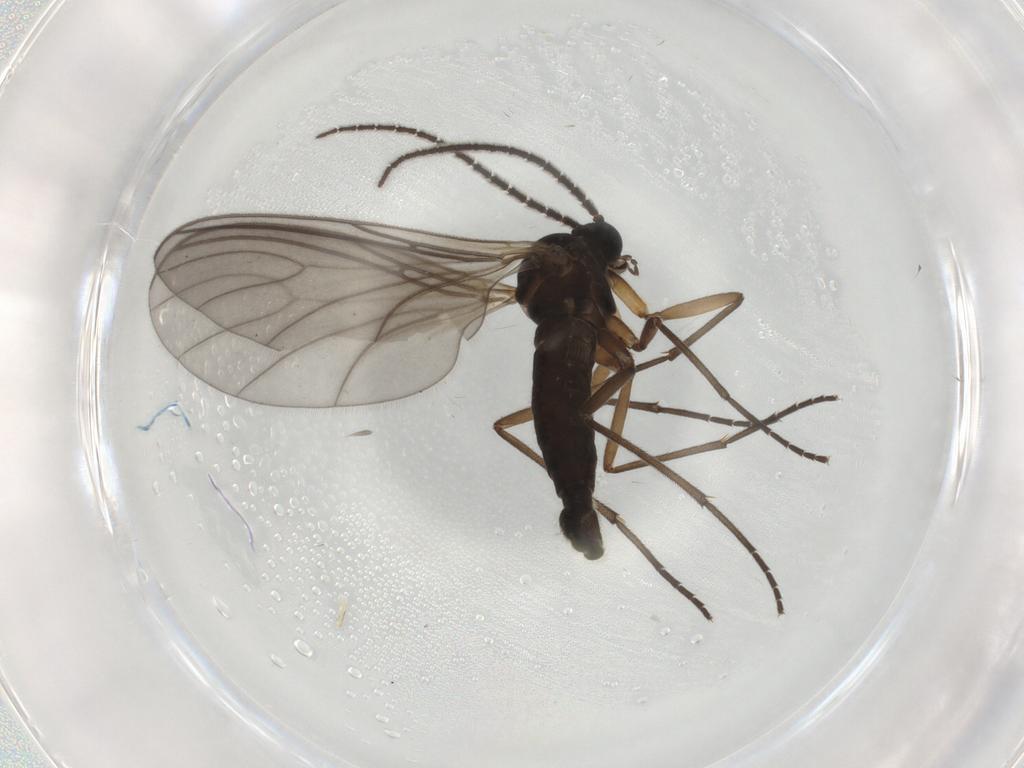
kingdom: Animalia
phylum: Arthropoda
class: Insecta
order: Diptera
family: Sciaridae
